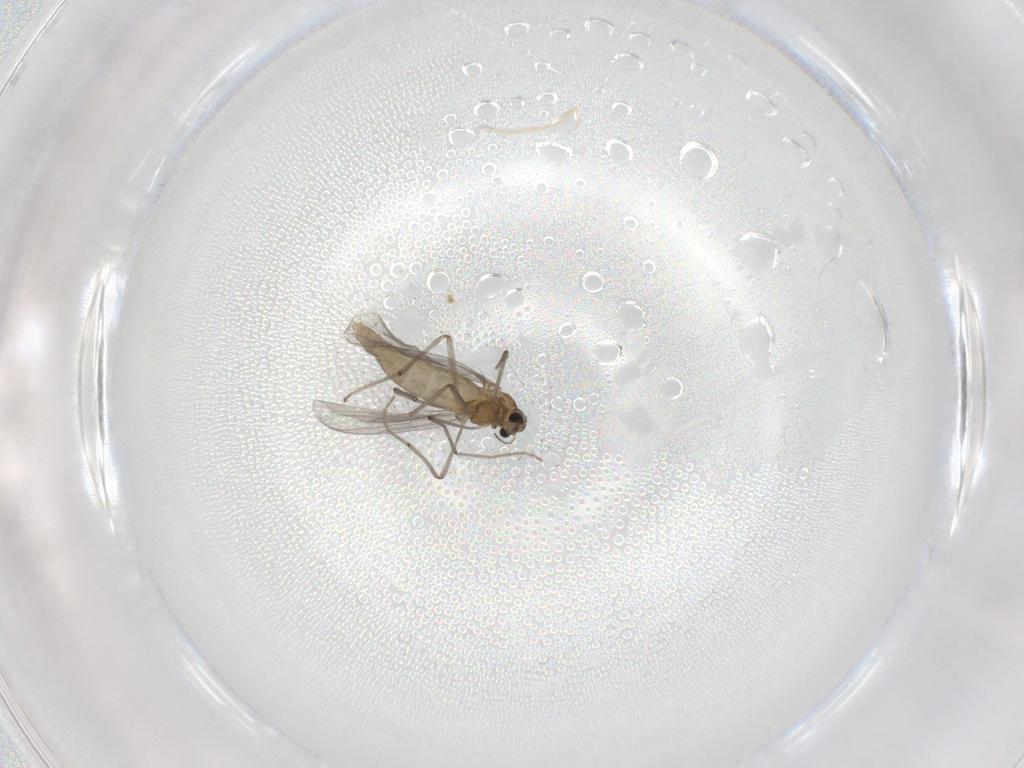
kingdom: Animalia
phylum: Arthropoda
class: Insecta
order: Diptera
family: Chironomidae
